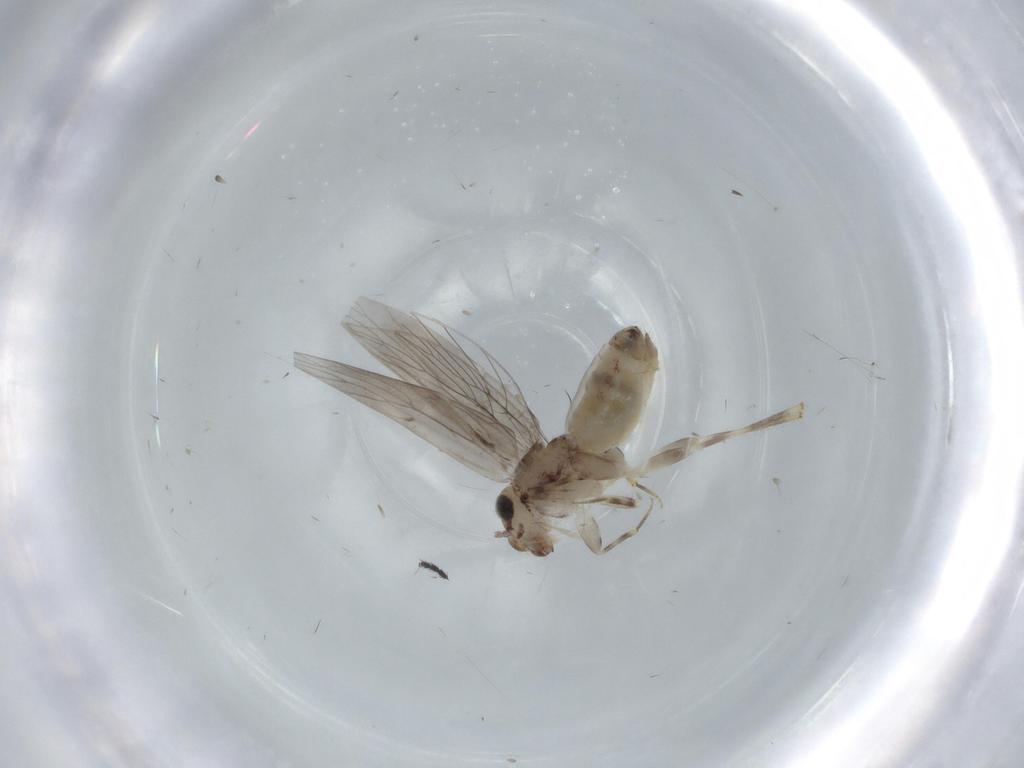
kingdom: Animalia
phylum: Arthropoda
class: Insecta
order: Psocodea
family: Lepidopsocidae
